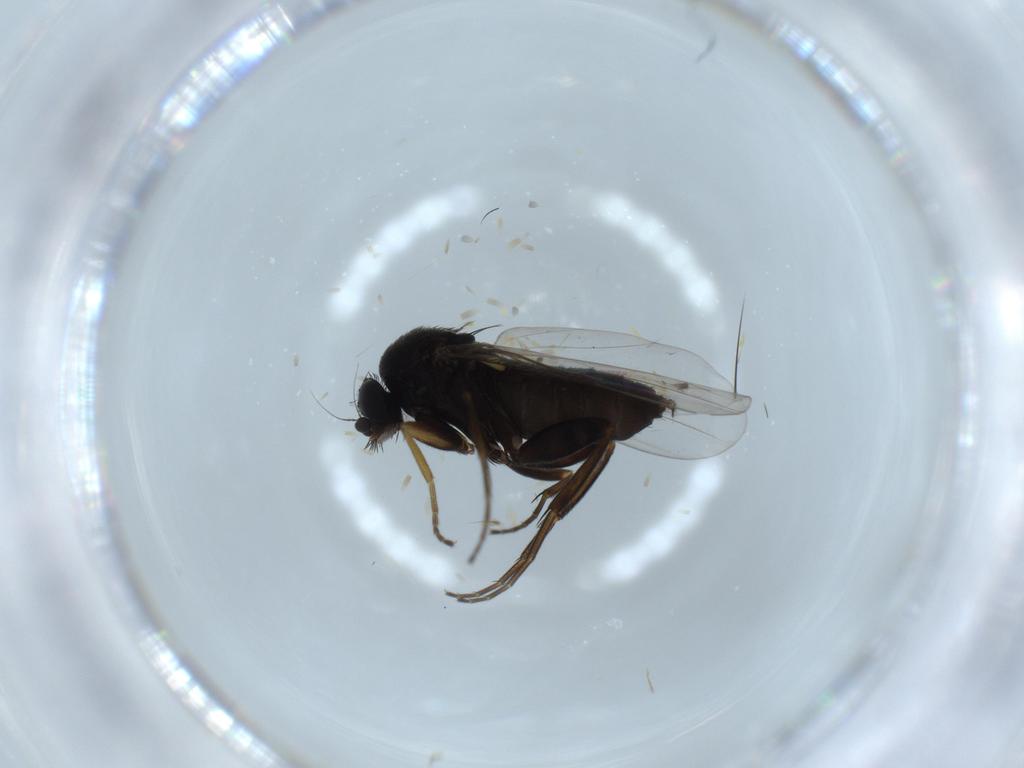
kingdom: Animalia
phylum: Arthropoda
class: Insecta
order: Diptera
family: Phoridae
